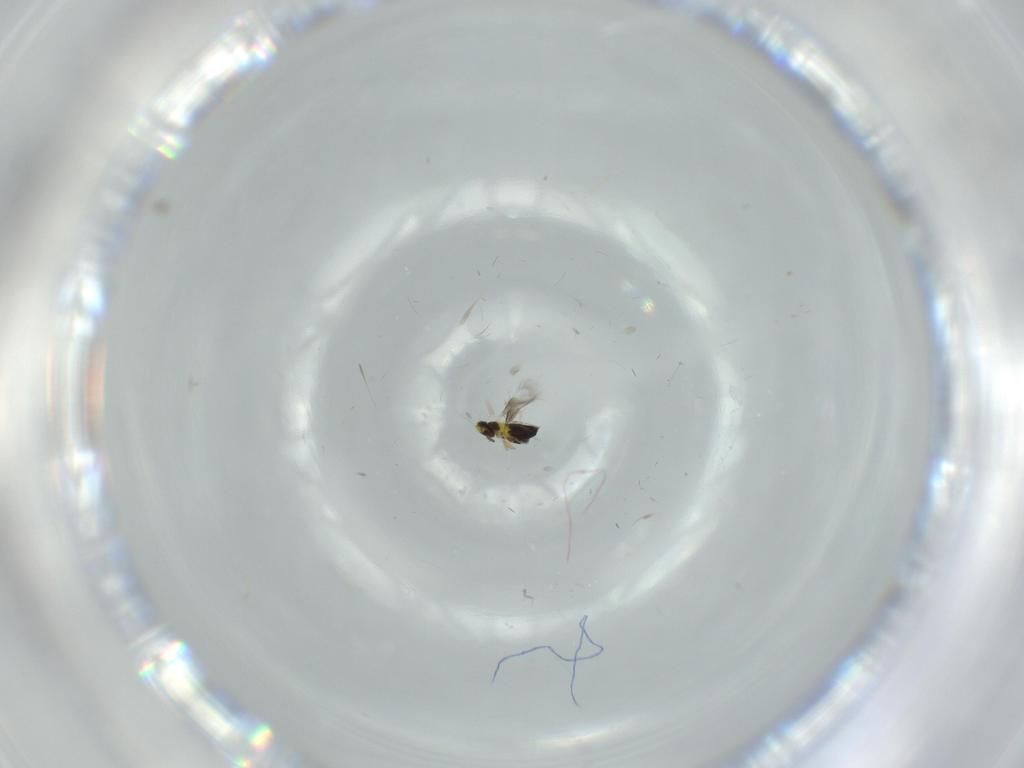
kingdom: Animalia
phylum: Arthropoda
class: Insecta
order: Hymenoptera
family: Signiphoridae
